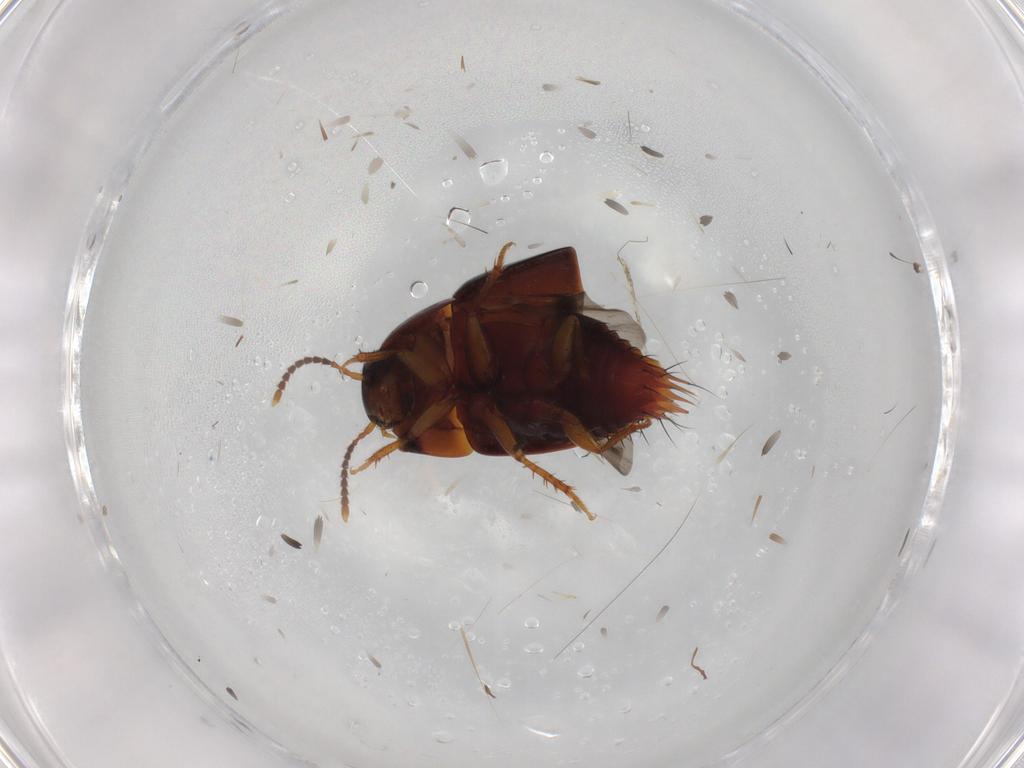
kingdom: Animalia
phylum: Arthropoda
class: Insecta
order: Coleoptera
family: Staphylinidae
